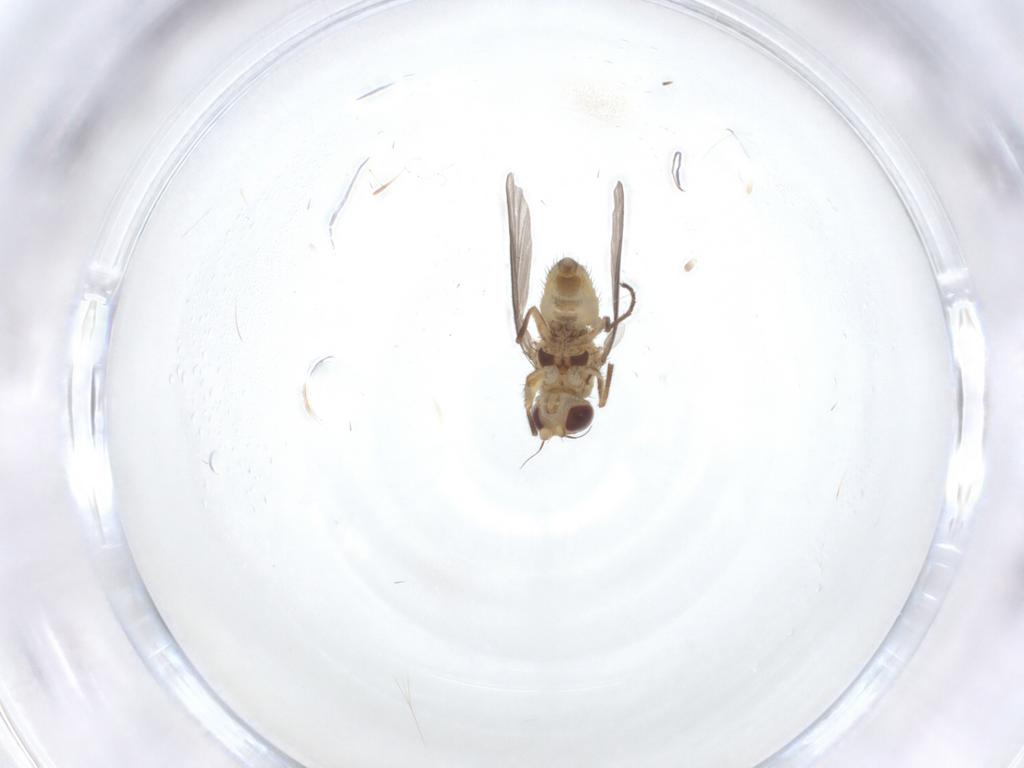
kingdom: Animalia
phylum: Arthropoda
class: Insecta
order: Diptera
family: Agromyzidae
